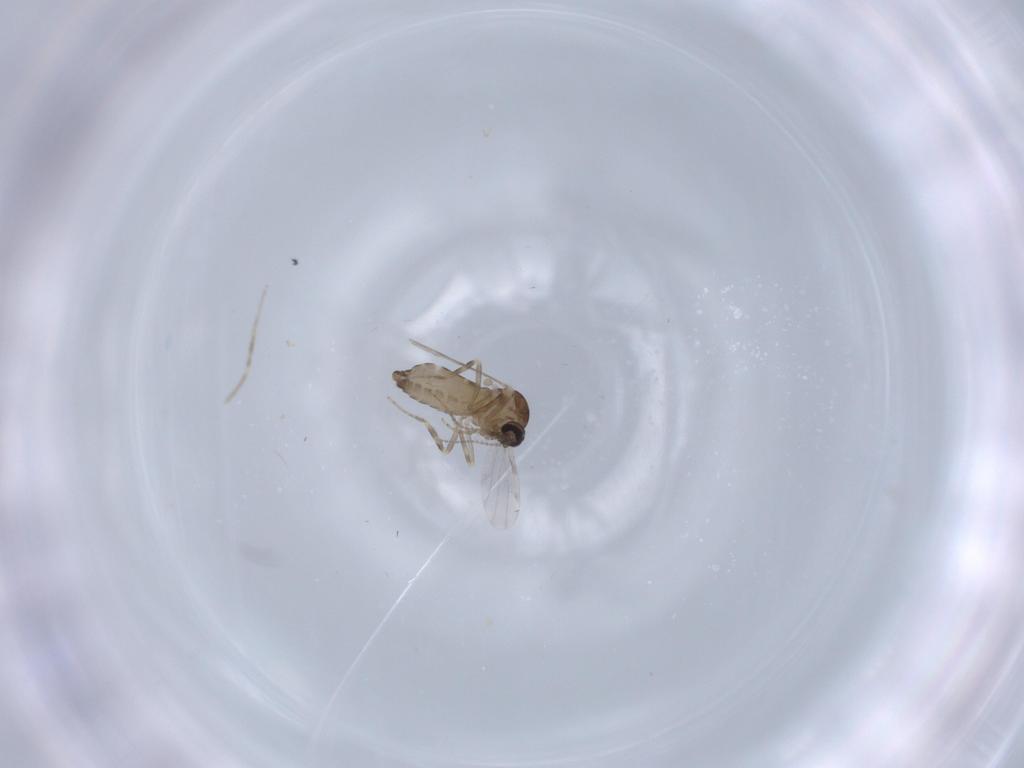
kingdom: Animalia
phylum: Arthropoda
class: Insecta
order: Diptera
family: Ceratopogonidae
